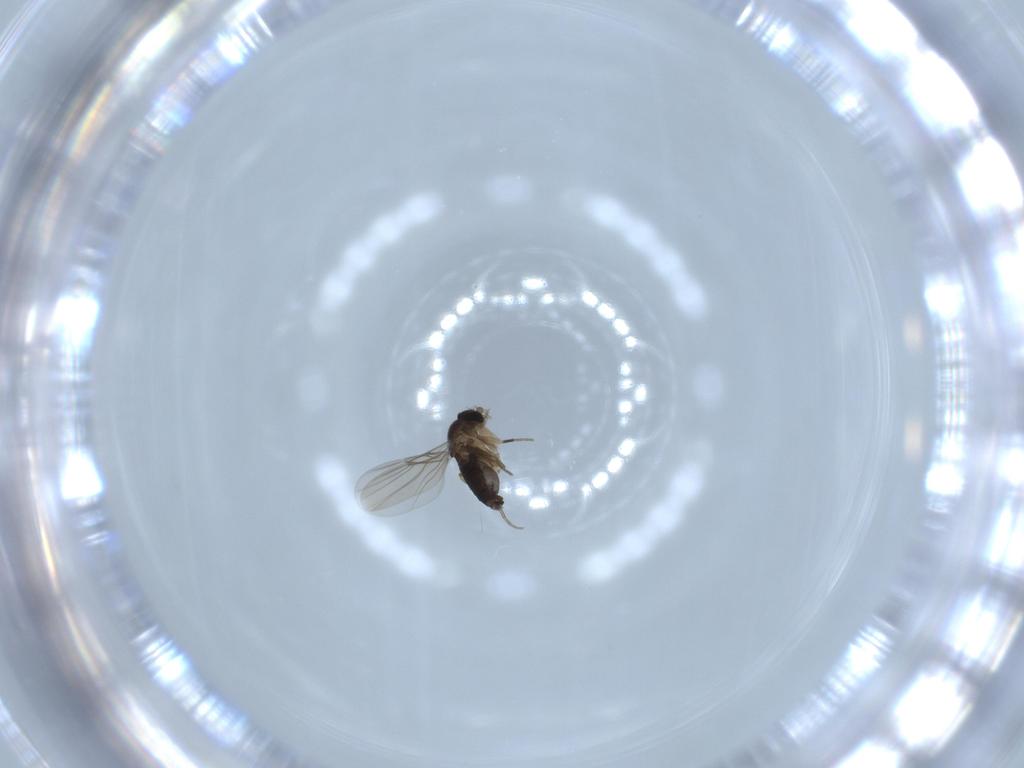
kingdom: Animalia
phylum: Arthropoda
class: Insecta
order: Diptera
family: Phoridae
